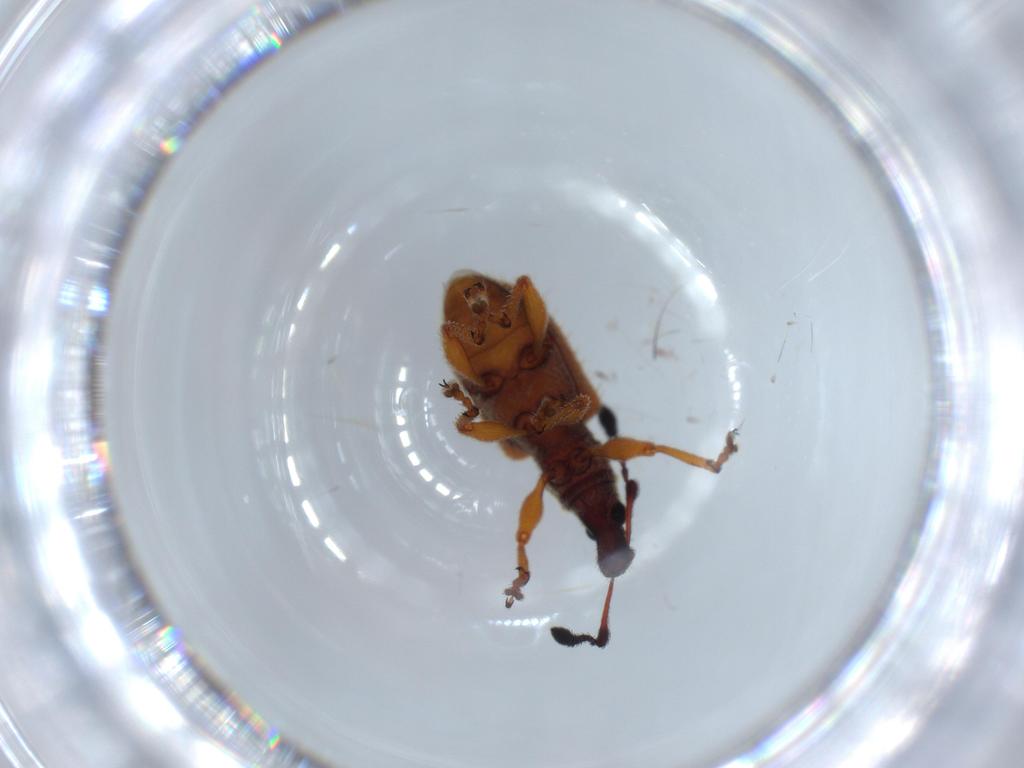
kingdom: Animalia
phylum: Arthropoda
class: Insecta
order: Coleoptera
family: Curculionidae
